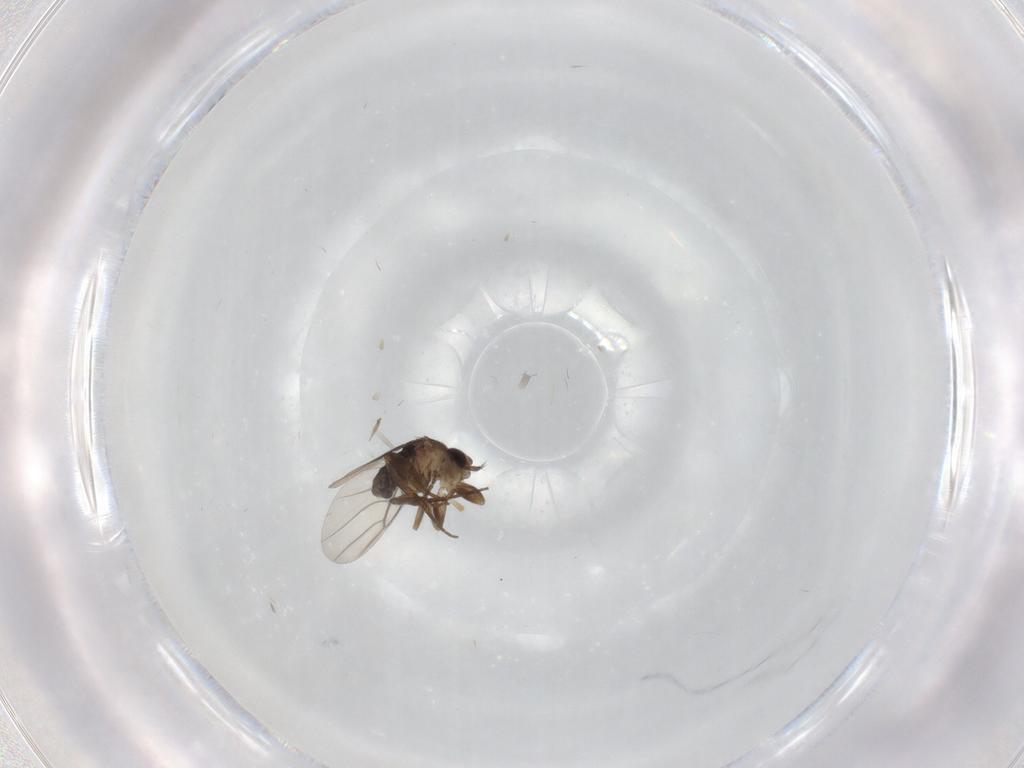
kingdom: Animalia
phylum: Arthropoda
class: Insecta
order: Diptera
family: Phoridae
